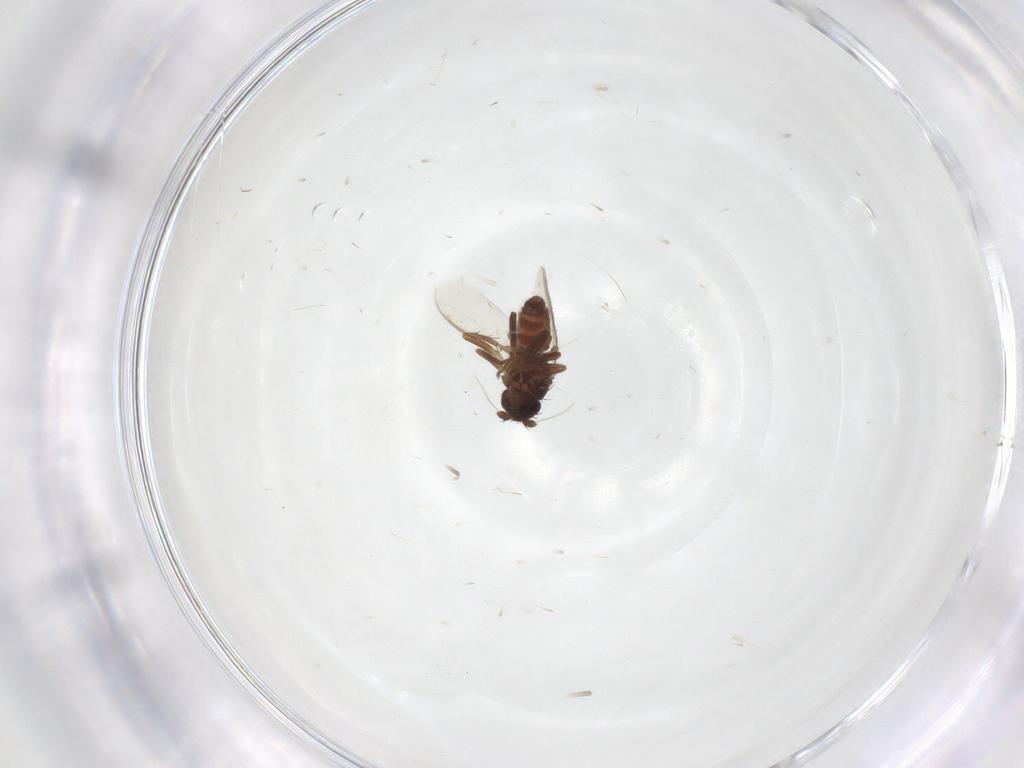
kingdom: Animalia
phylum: Arthropoda
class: Insecta
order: Diptera
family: Sphaeroceridae
